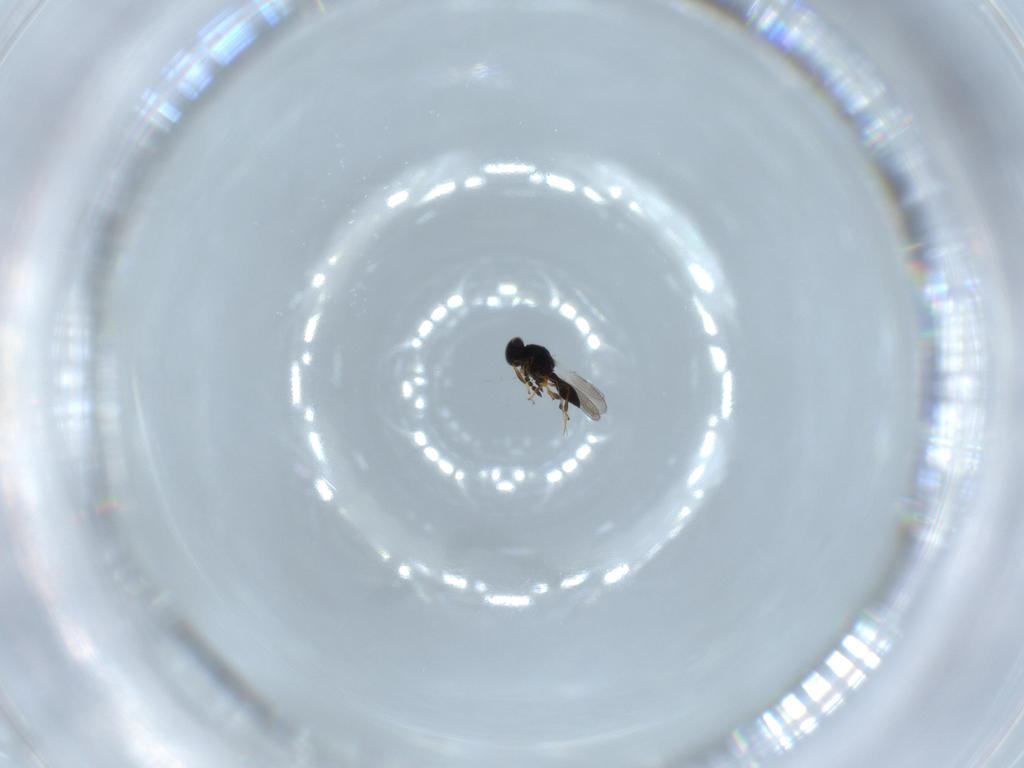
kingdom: Animalia
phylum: Arthropoda
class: Insecta
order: Hymenoptera
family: Platygastridae
